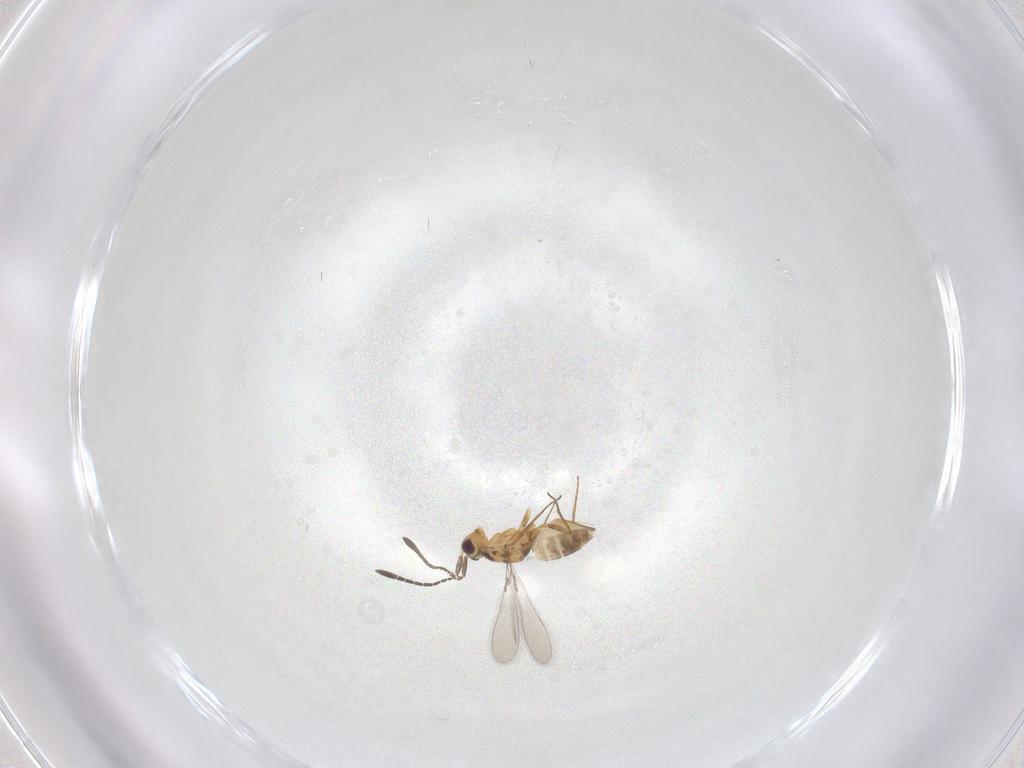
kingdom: Animalia
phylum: Arthropoda
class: Insecta
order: Hymenoptera
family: Mymaridae
